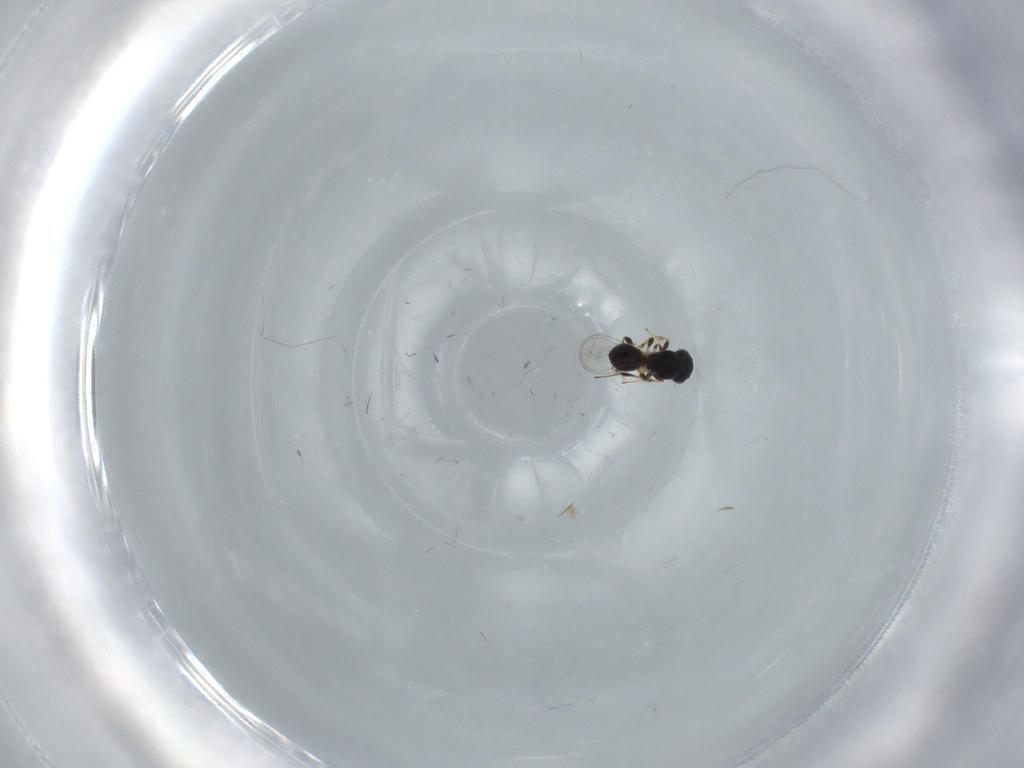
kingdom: Animalia
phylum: Arthropoda
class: Insecta
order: Hymenoptera
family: Platygastridae
